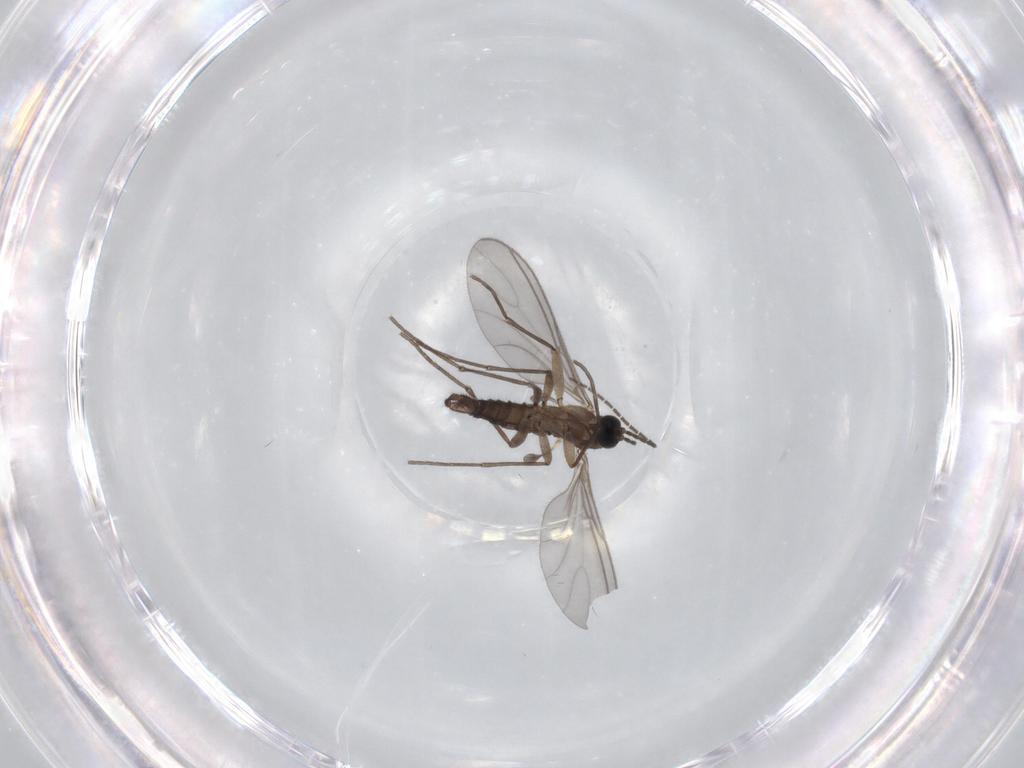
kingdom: Animalia
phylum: Arthropoda
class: Insecta
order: Diptera
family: Sciaridae
